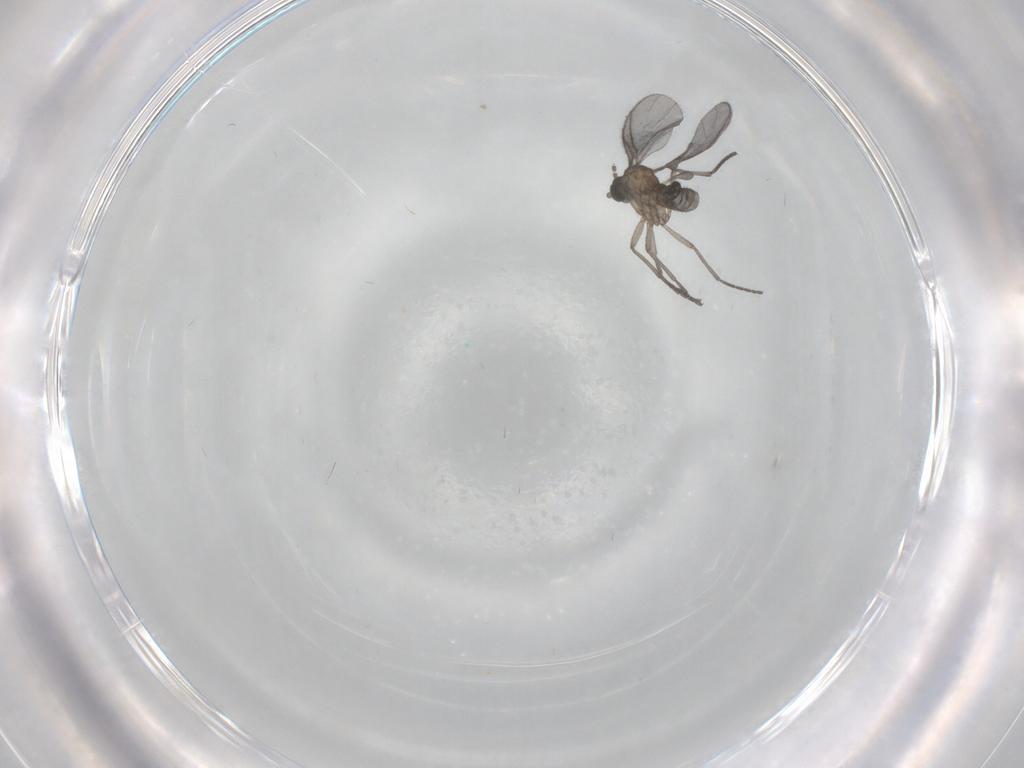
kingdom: Animalia
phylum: Arthropoda
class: Insecta
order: Diptera
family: Sciaridae
